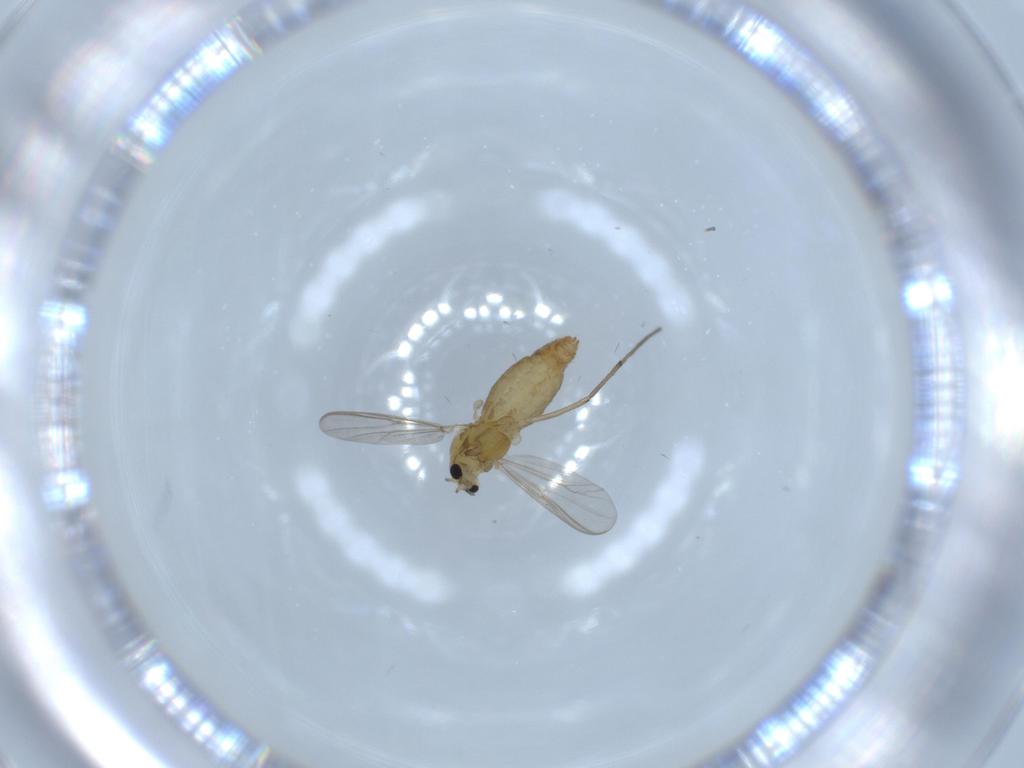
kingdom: Animalia
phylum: Arthropoda
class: Insecta
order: Diptera
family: Chironomidae
